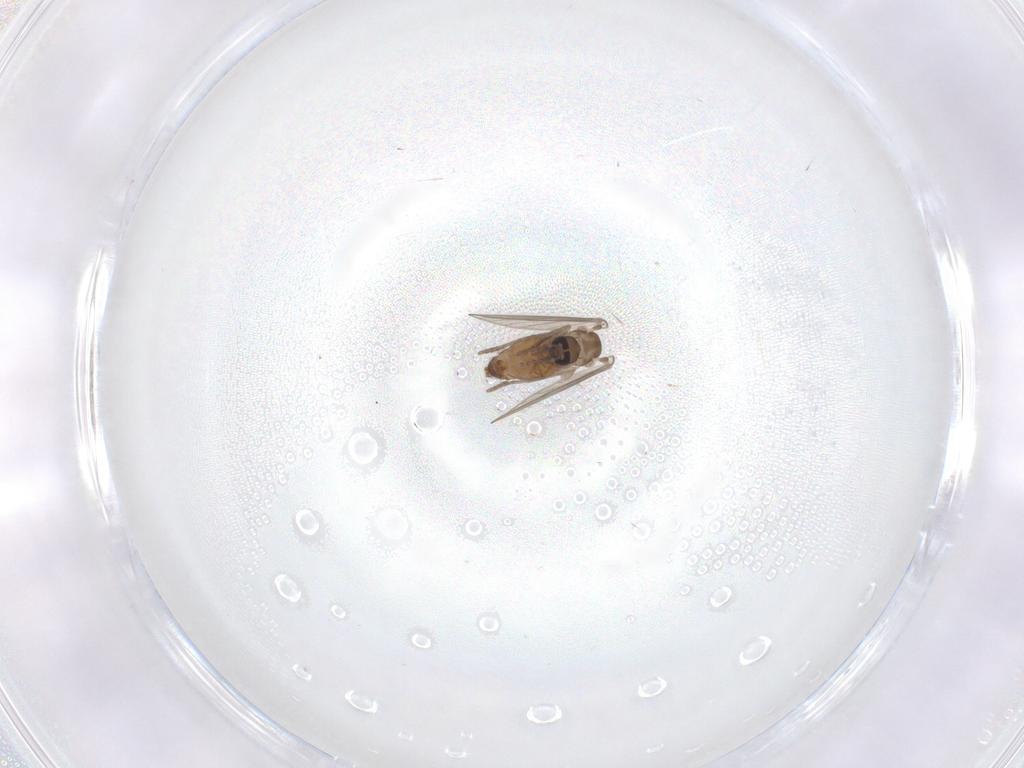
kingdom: Animalia
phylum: Arthropoda
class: Insecta
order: Diptera
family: Psychodidae
